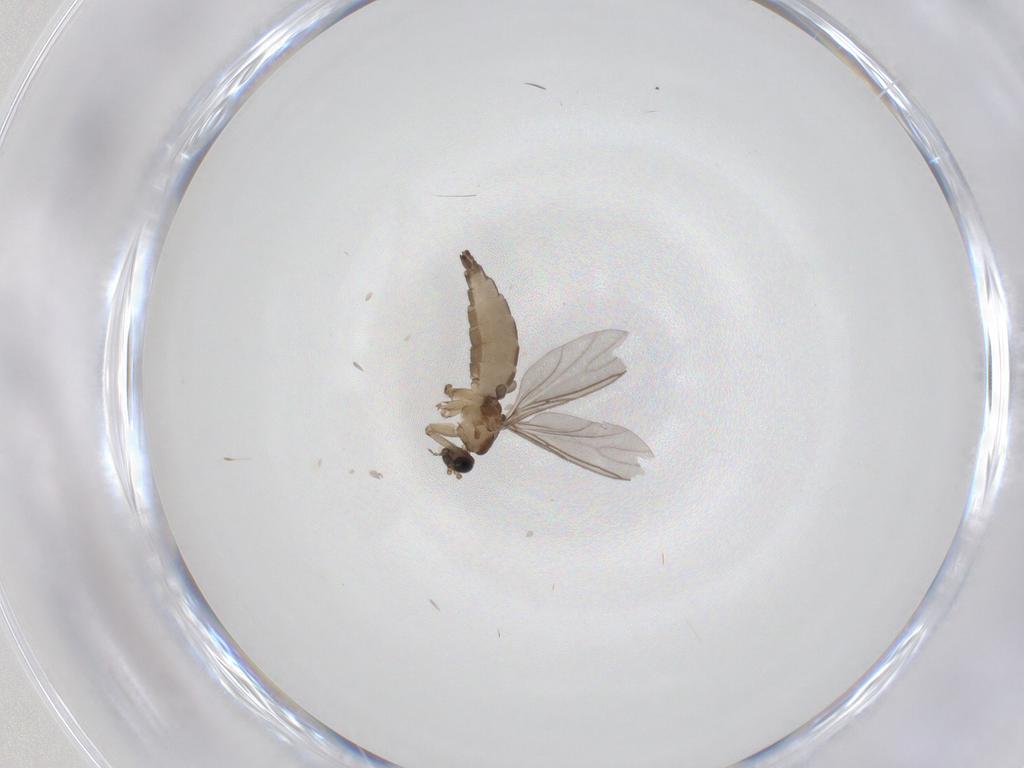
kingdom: Animalia
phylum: Arthropoda
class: Insecta
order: Diptera
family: Sciaridae
